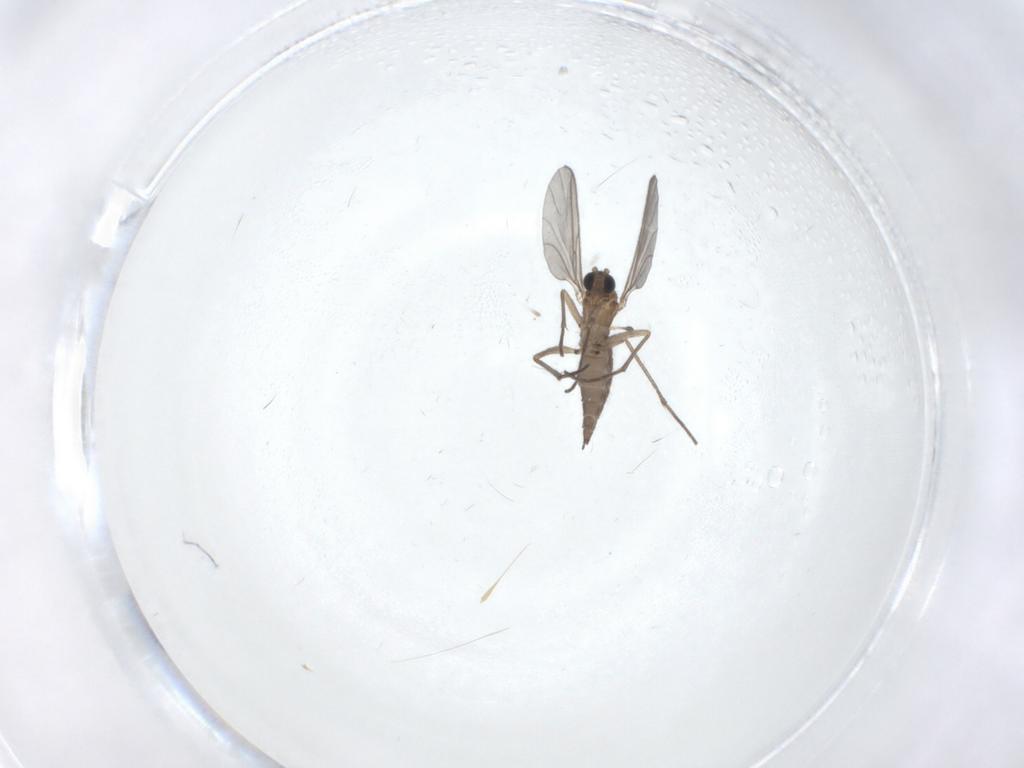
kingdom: Animalia
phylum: Arthropoda
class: Insecta
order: Diptera
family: Sciaridae
